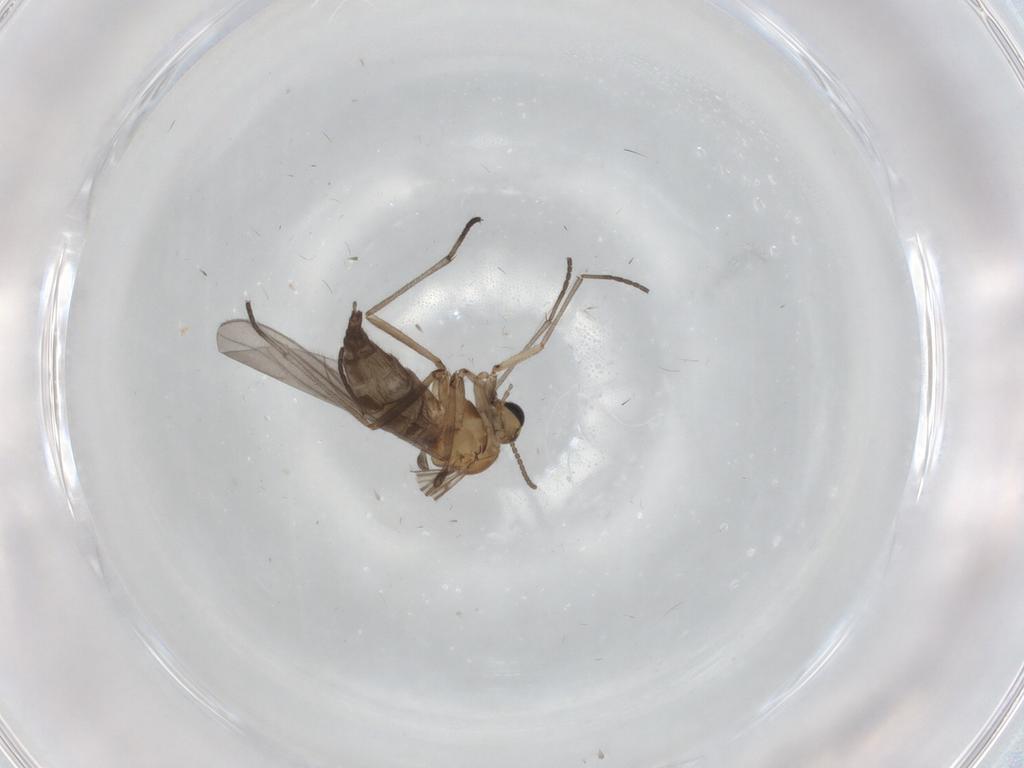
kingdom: Animalia
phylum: Arthropoda
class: Insecta
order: Diptera
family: Sciaridae
